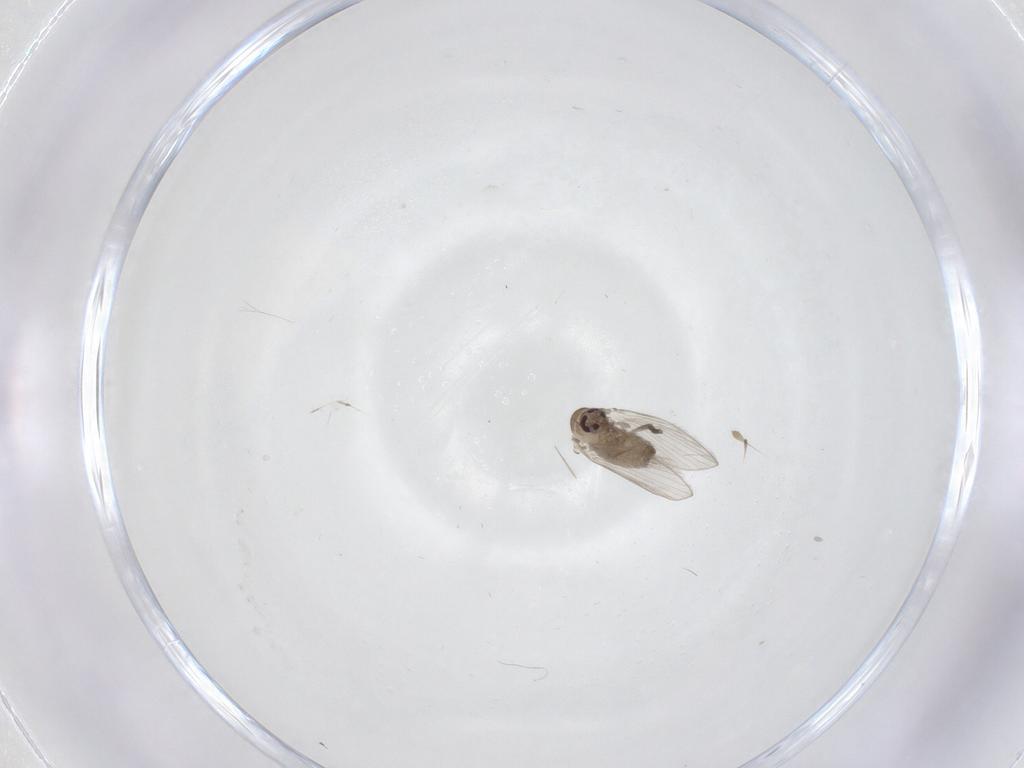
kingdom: Animalia
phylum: Arthropoda
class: Insecta
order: Diptera
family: Psychodidae
